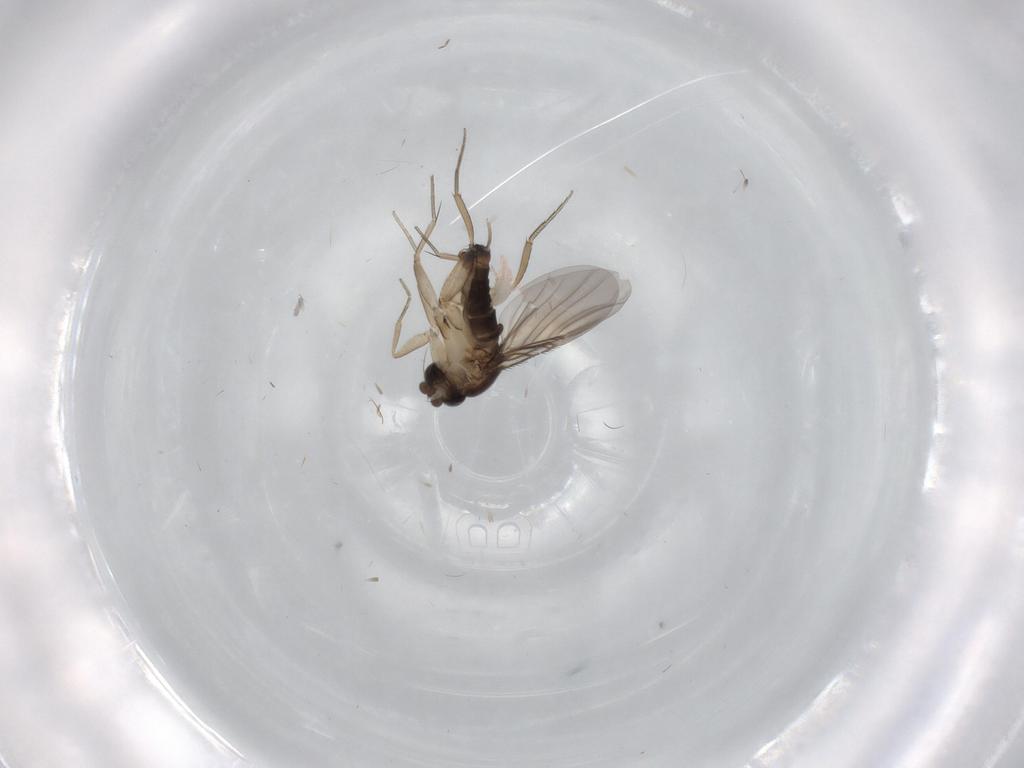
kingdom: Animalia
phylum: Arthropoda
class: Insecta
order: Diptera
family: Phoridae
